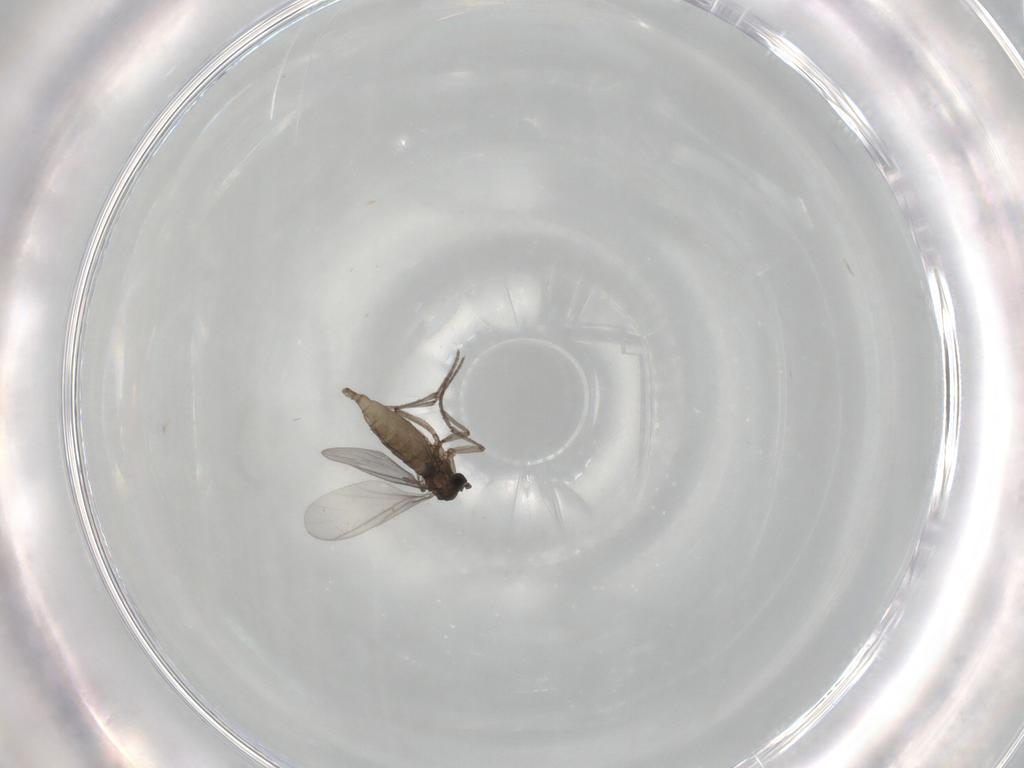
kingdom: Animalia
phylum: Arthropoda
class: Insecta
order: Diptera
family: Sciaridae
